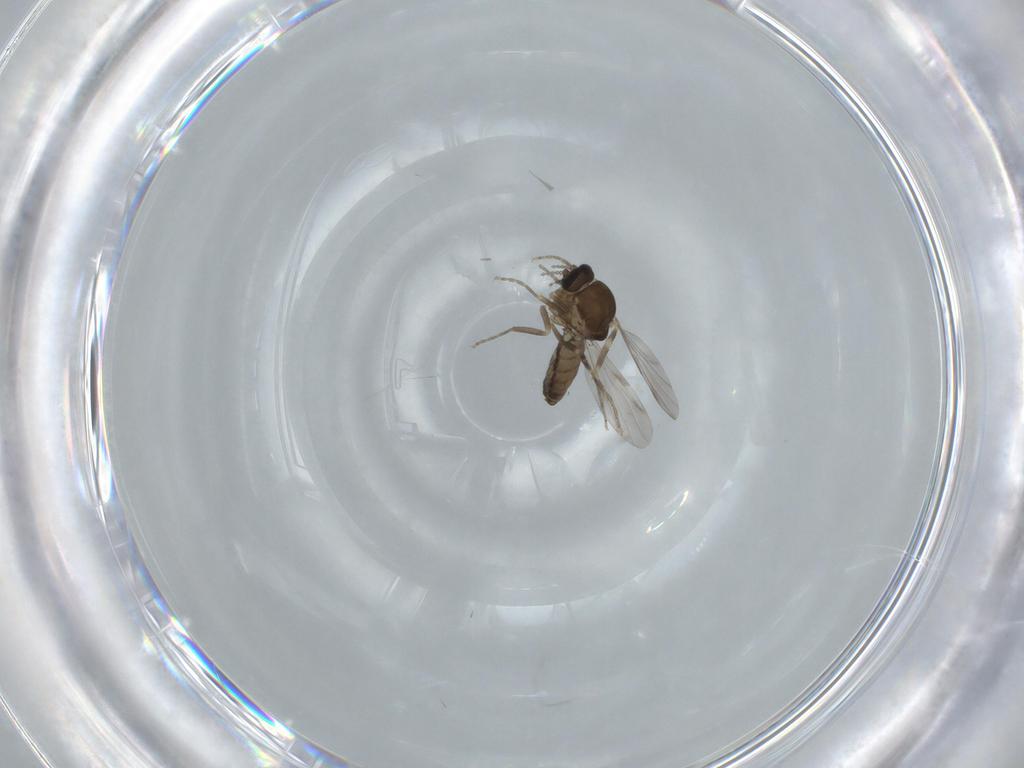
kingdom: Animalia
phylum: Arthropoda
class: Insecta
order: Diptera
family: Ceratopogonidae
